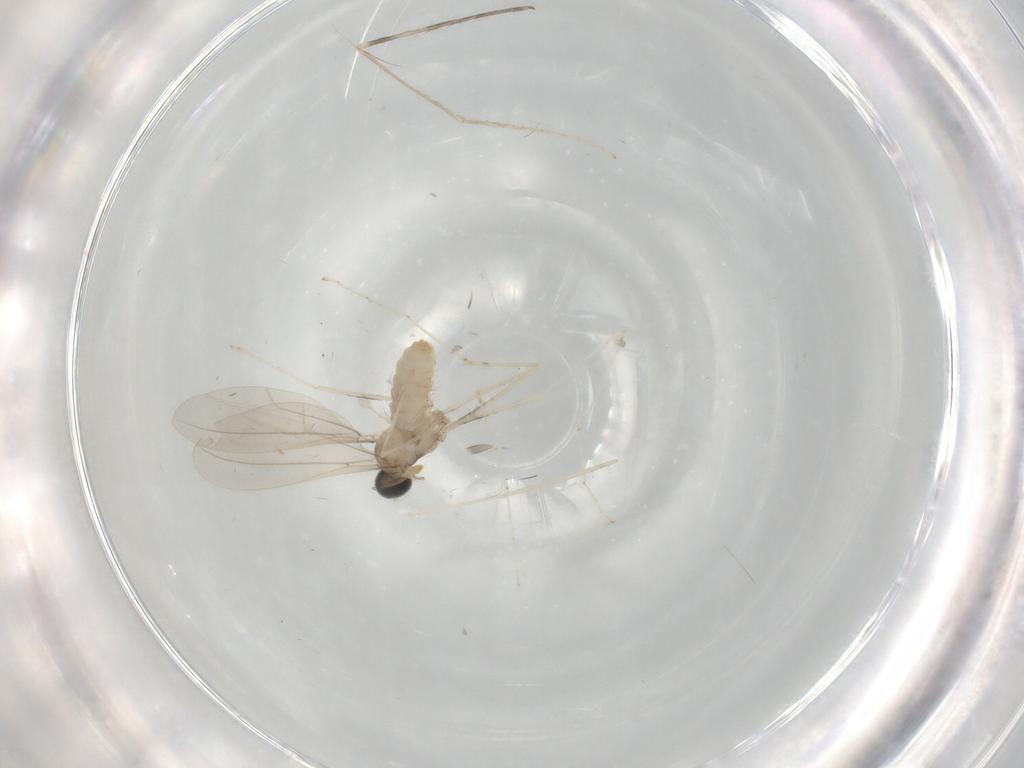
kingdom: Animalia
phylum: Arthropoda
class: Insecta
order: Diptera
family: Cecidomyiidae
